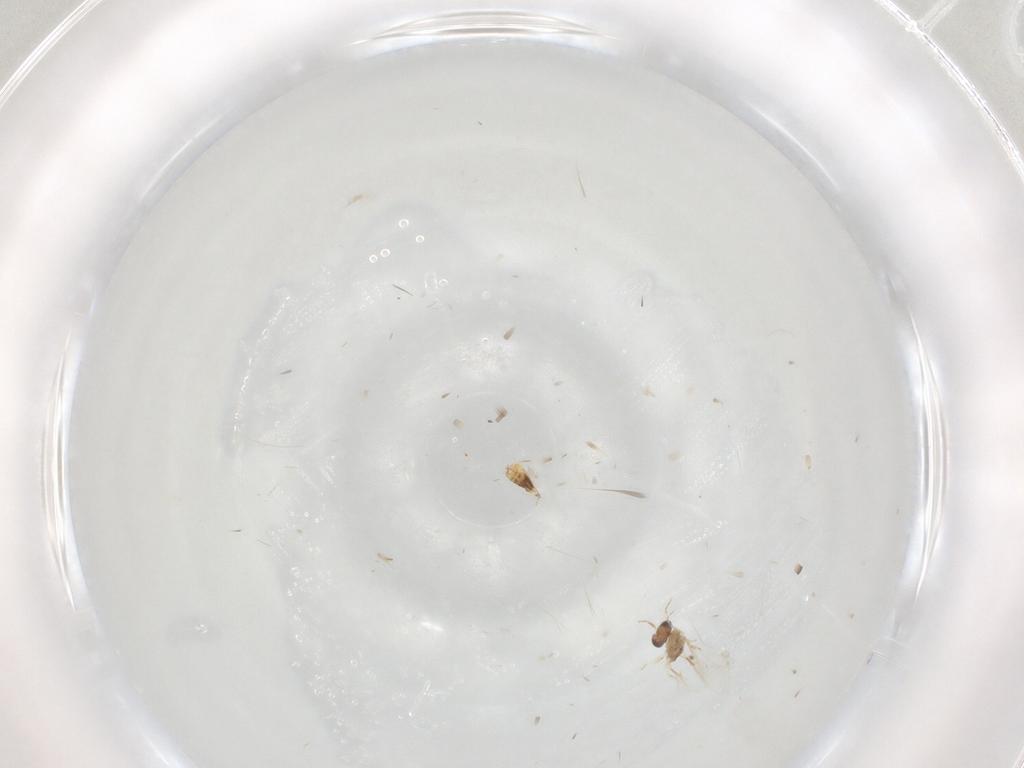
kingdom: Animalia
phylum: Arthropoda
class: Insecta
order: Hymenoptera
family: Mymaridae
